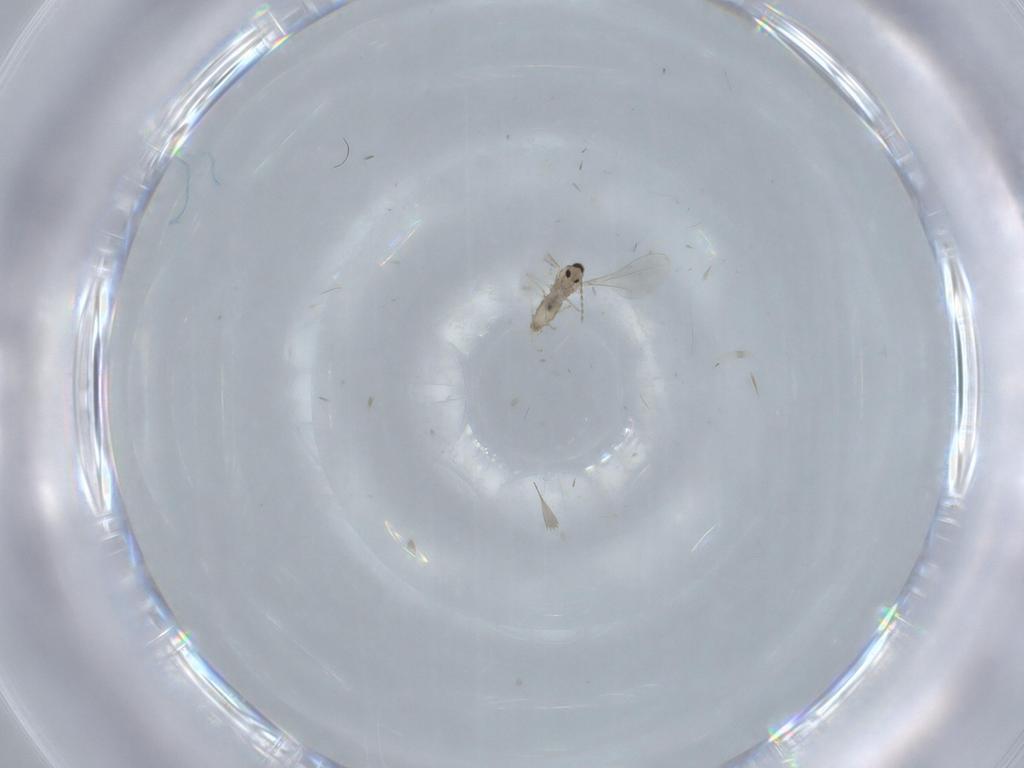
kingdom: Animalia
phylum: Arthropoda
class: Insecta
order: Diptera
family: Cecidomyiidae
